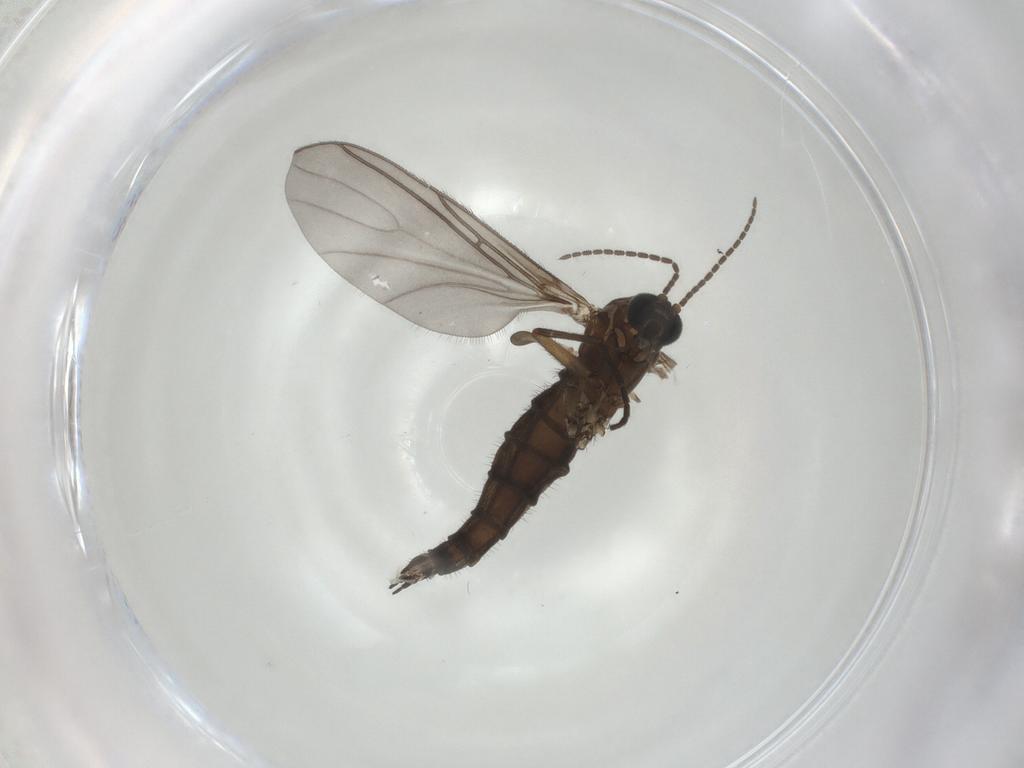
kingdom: Animalia
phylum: Arthropoda
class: Insecta
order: Diptera
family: Sciaridae
